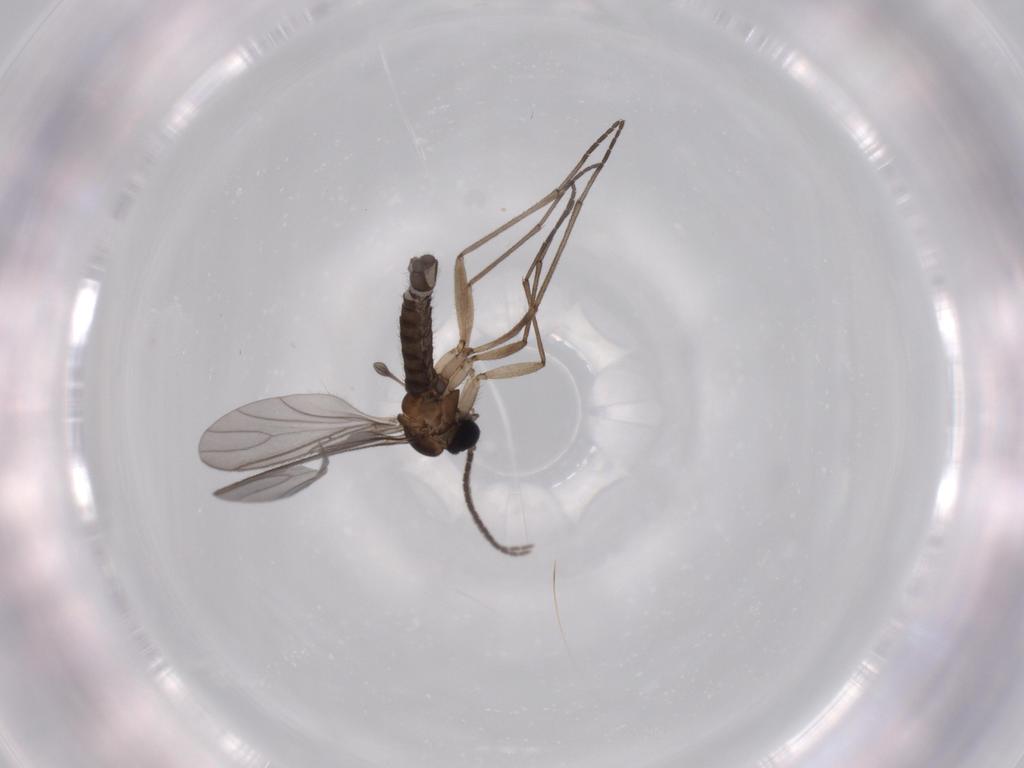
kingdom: Animalia
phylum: Arthropoda
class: Insecta
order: Diptera
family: Sciaridae
